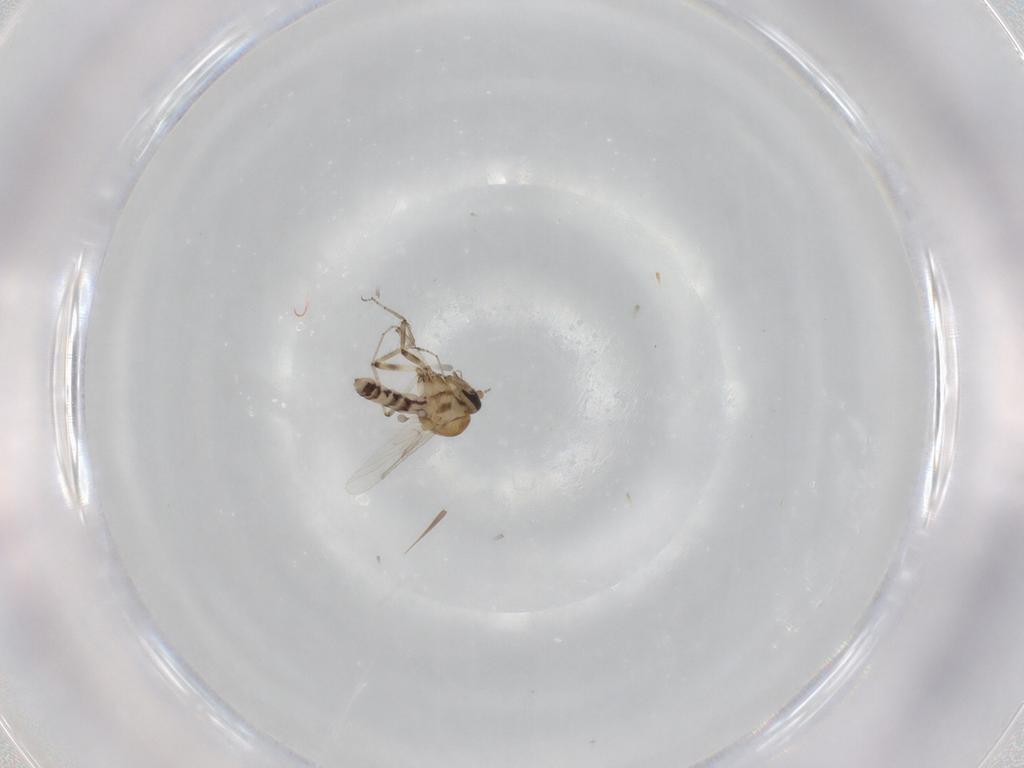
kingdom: Animalia
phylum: Arthropoda
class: Insecta
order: Diptera
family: Ceratopogonidae
